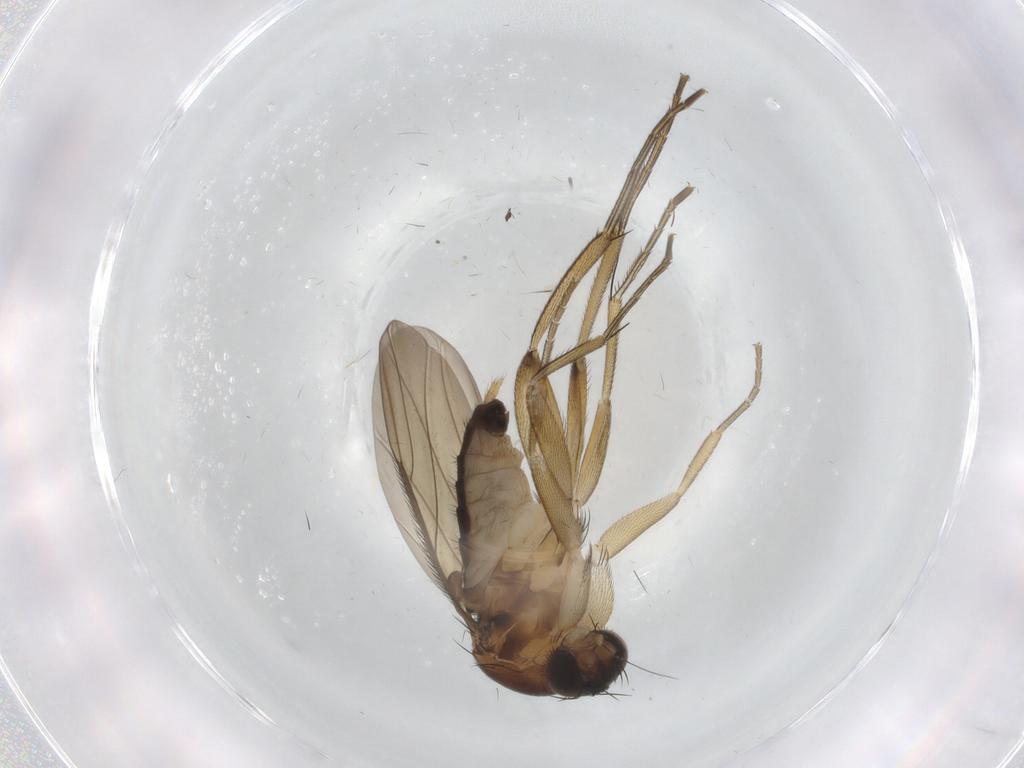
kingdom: Animalia
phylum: Arthropoda
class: Insecta
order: Diptera
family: Phoridae
